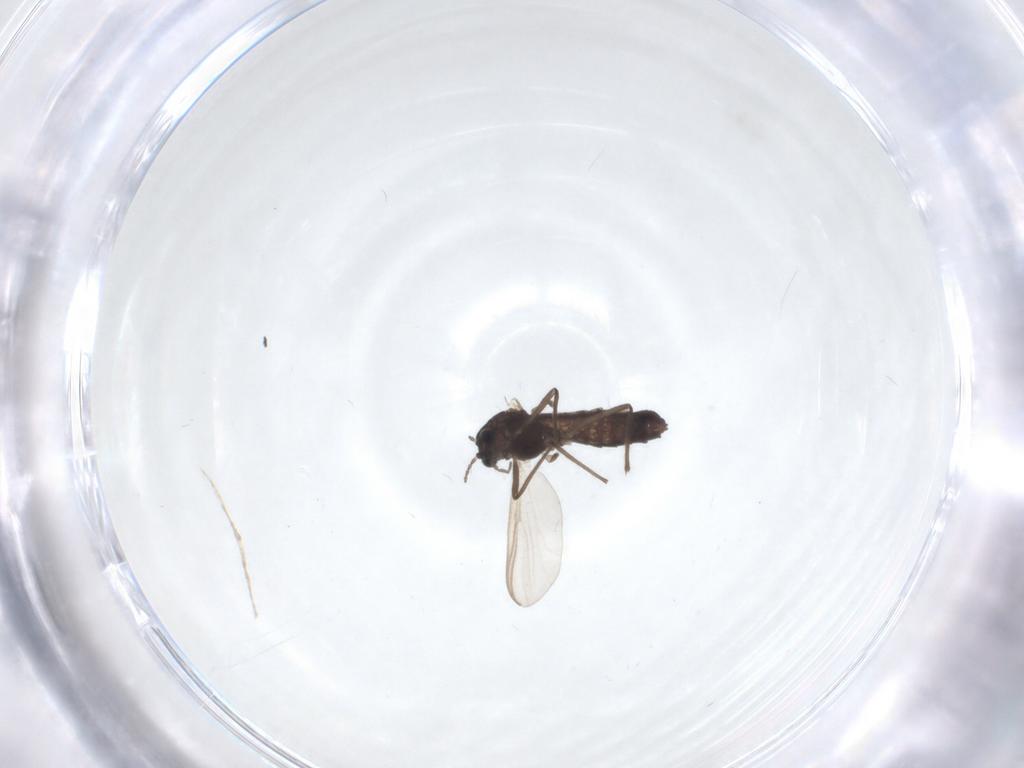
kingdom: Animalia
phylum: Arthropoda
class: Insecta
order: Diptera
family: Chironomidae
